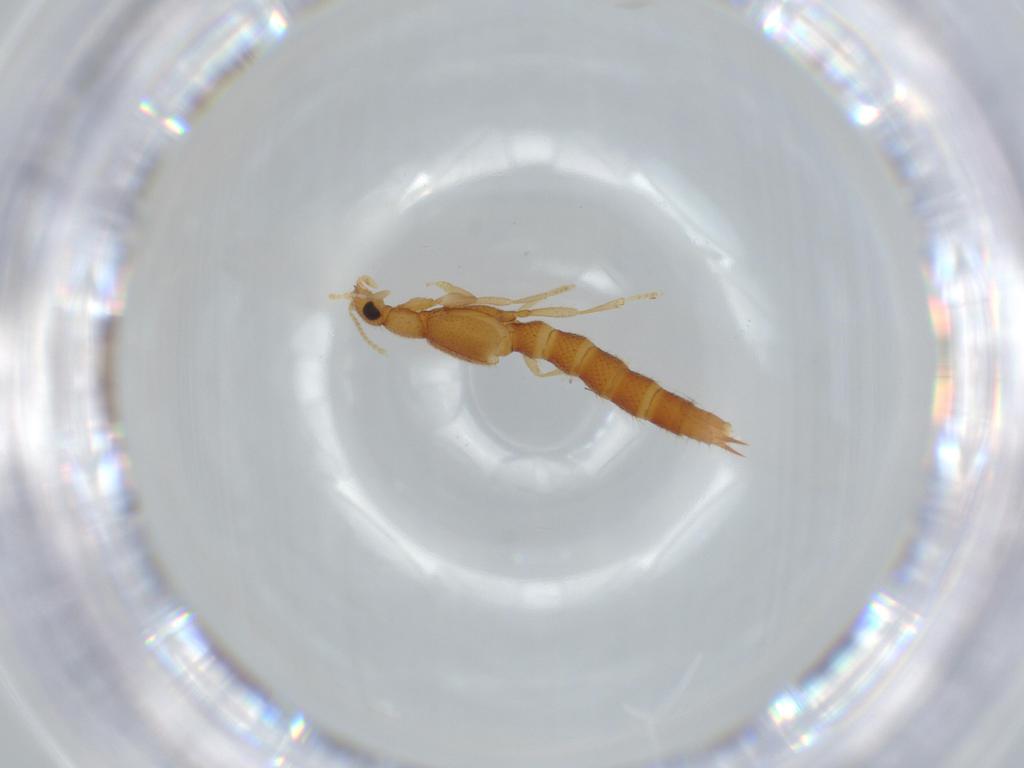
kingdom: Animalia
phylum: Arthropoda
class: Insecta
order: Coleoptera
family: Staphylinidae
